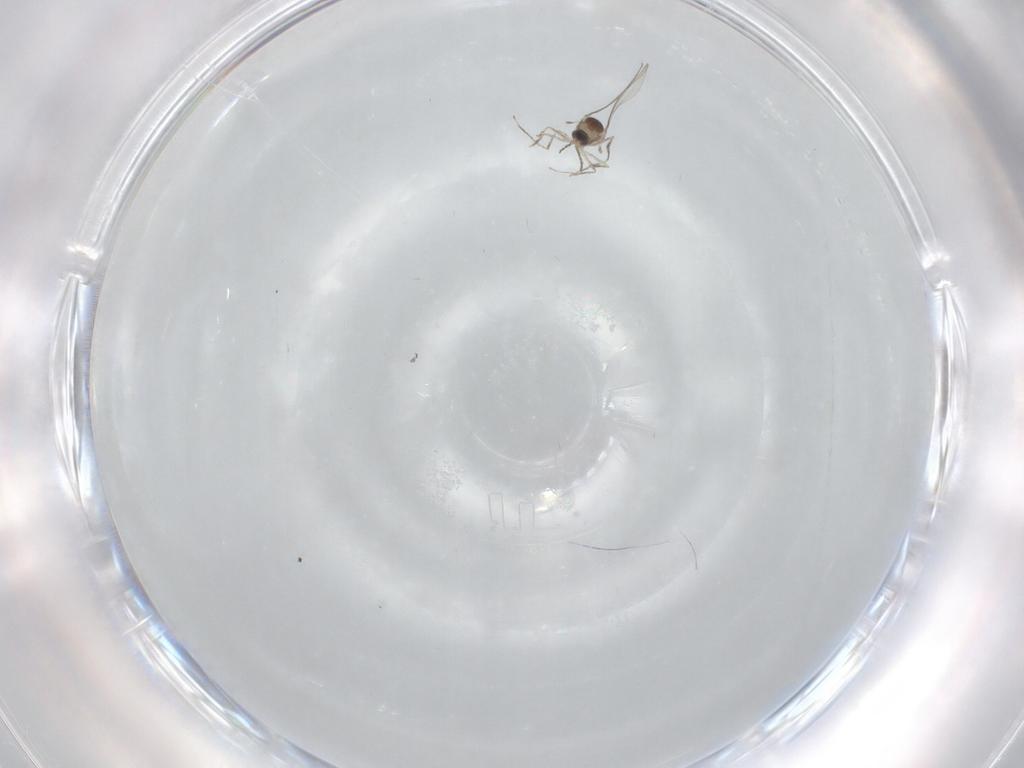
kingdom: Animalia
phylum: Arthropoda
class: Insecta
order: Diptera
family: Cecidomyiidae
